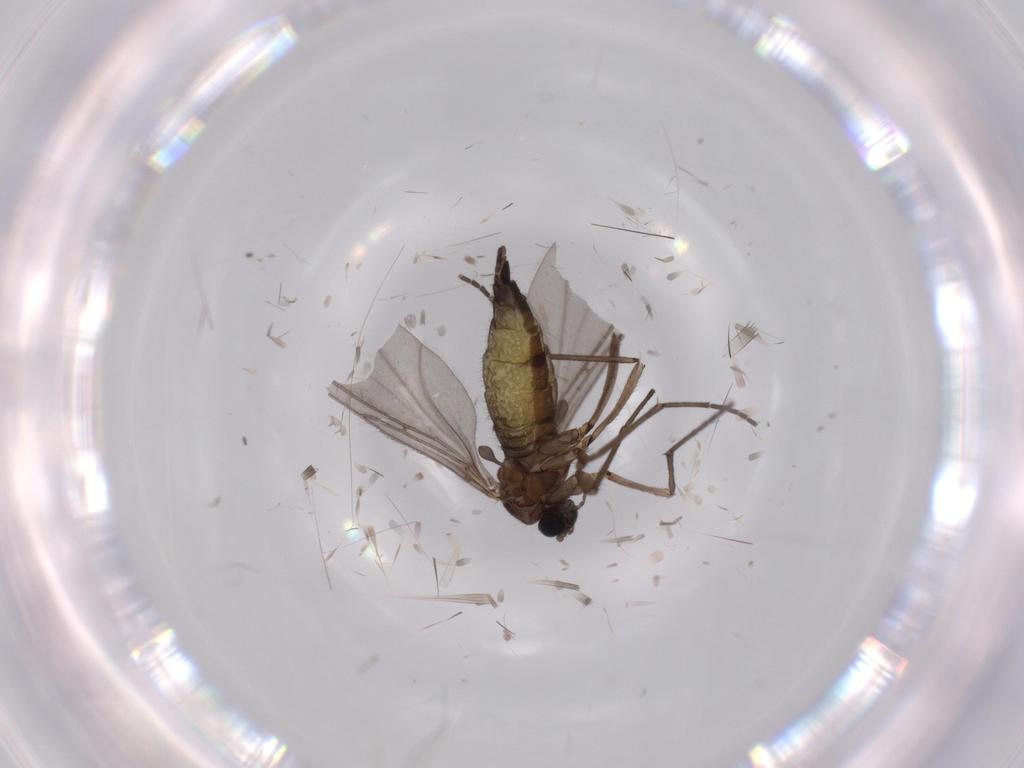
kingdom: Animalia
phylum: Arthropoda
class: Insecta
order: Diptera
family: Sciaridae
